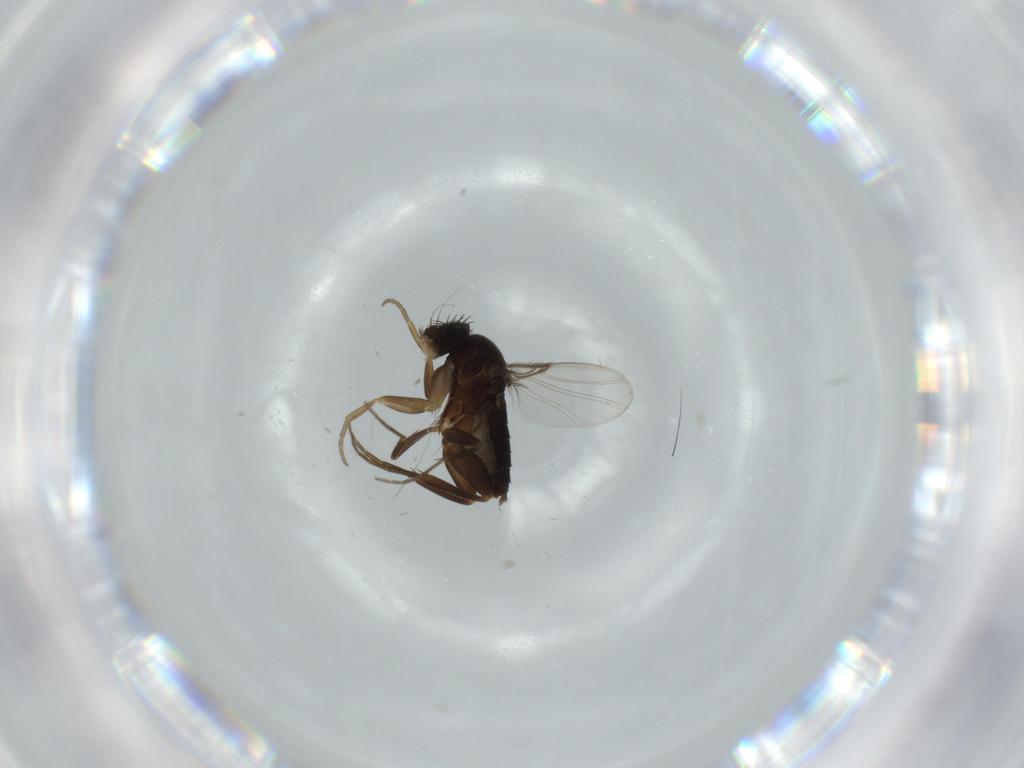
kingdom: Animalia
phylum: Arthropoda
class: Insecta
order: Diptera
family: Phoridae
